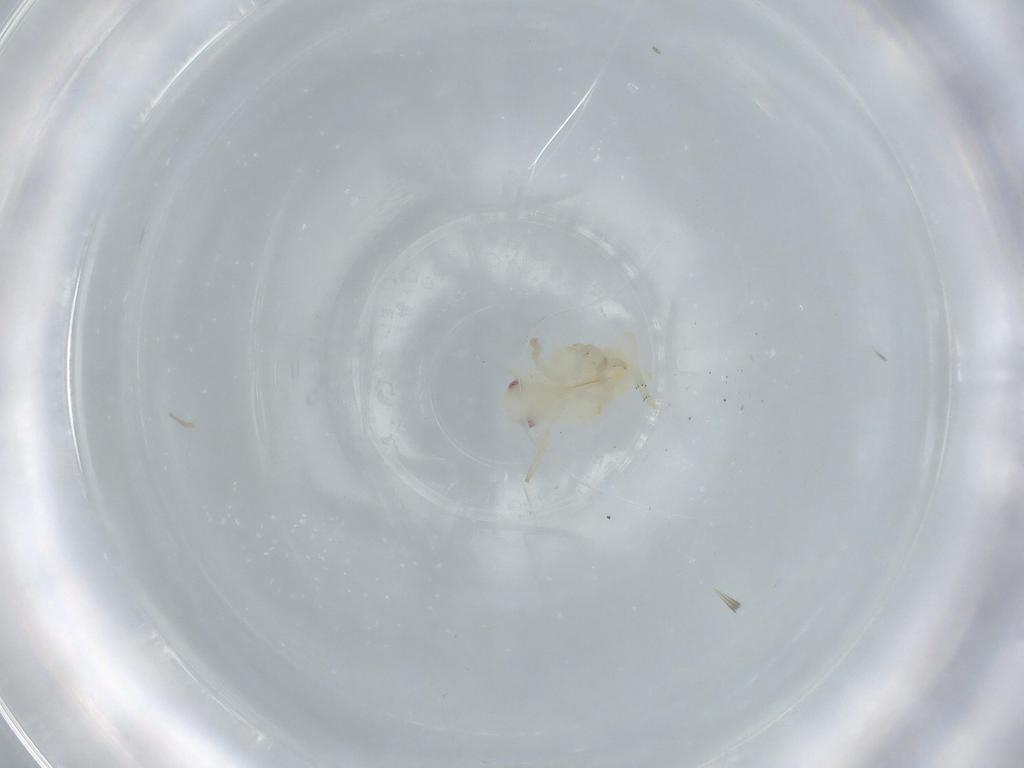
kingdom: Animalia
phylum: Arthropoda
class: Insecta
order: Hemiptera
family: Flatidae
